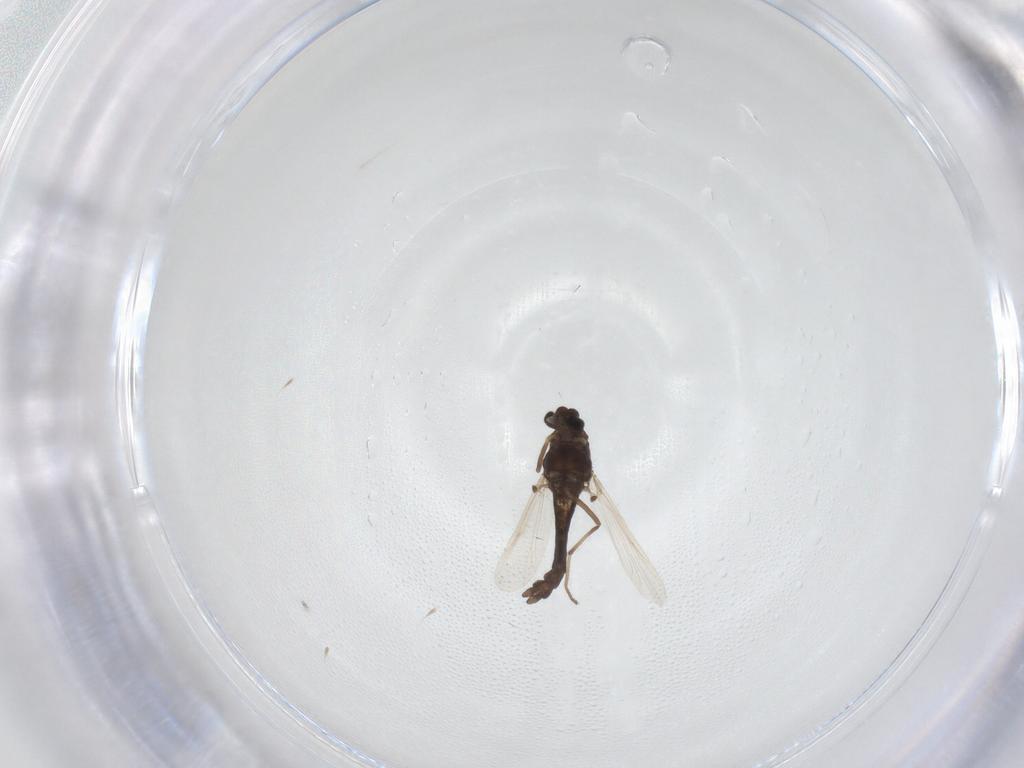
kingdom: Animalia
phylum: Arthropoda
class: Insecta
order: Diptera
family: Chironomidae
